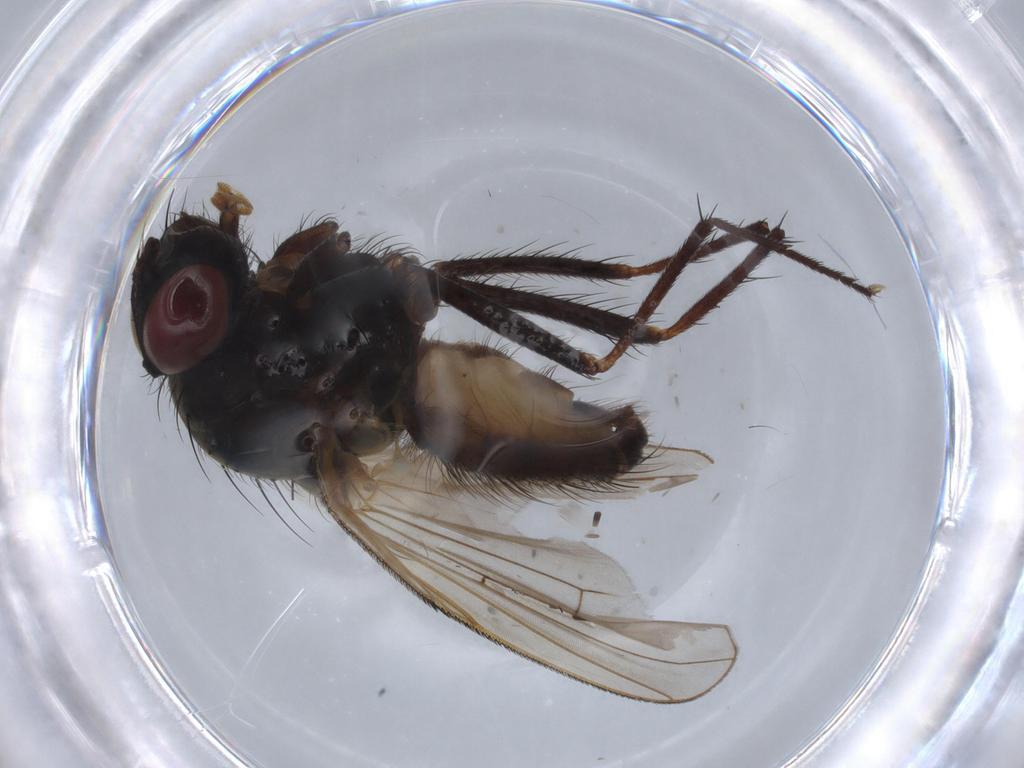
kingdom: Animalia
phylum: Arthropoda
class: Insecta
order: Diptera
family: Anthomyiidae
